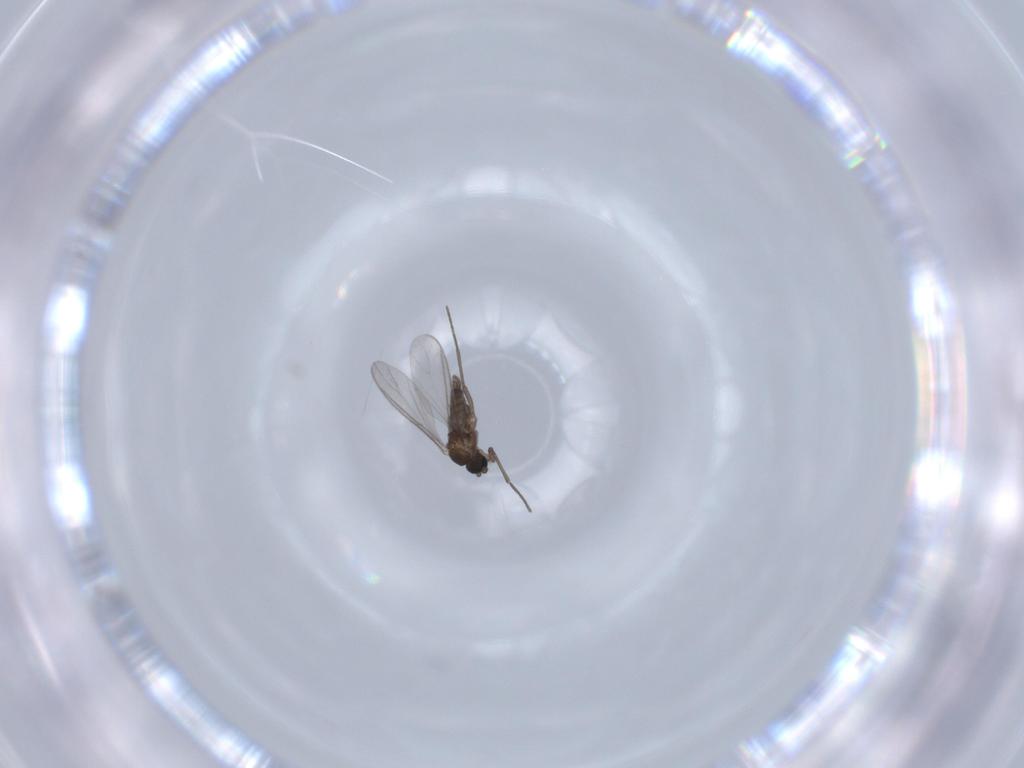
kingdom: Animalia
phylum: Arthropoda
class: Insecta
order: Diptera
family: Sciaridae
